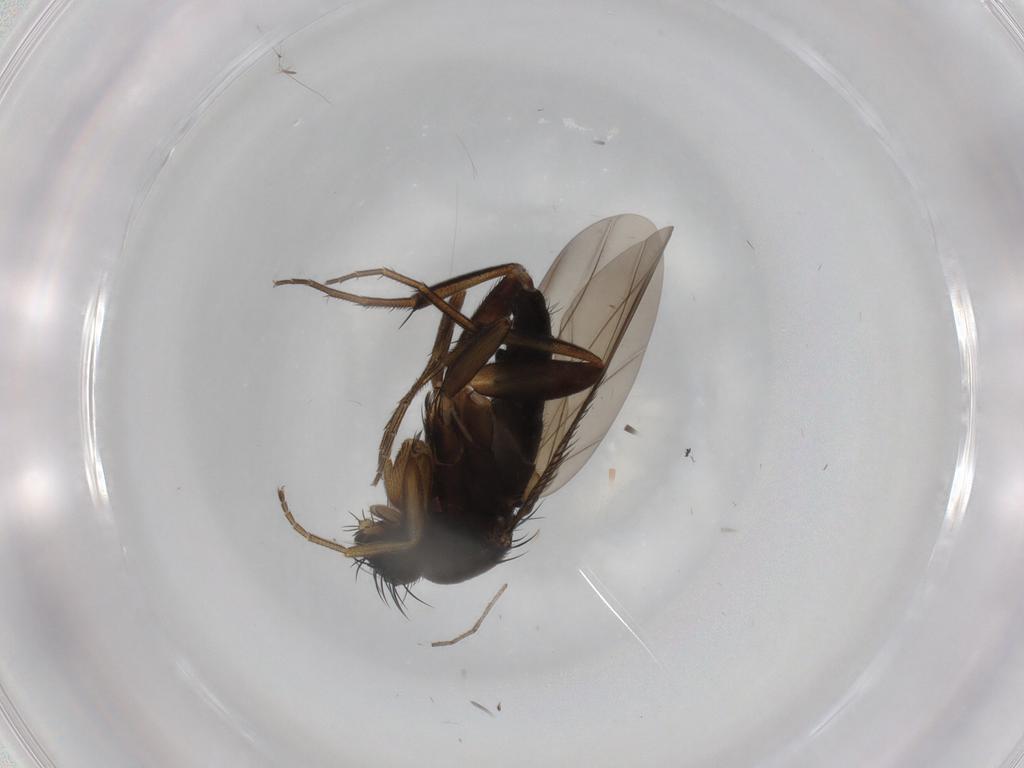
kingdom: Animalia
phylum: Arthropoda
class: Insecta
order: Diptera
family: Phoridae
